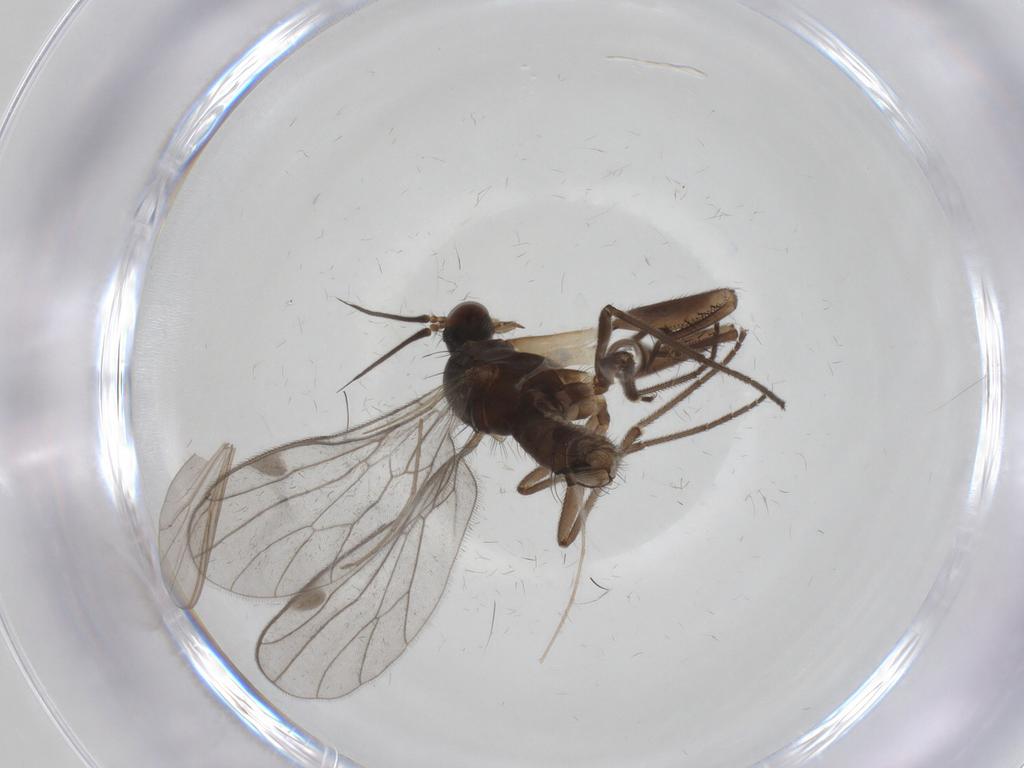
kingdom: Animalia
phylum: Arthropoda
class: Insecta
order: Diptera
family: Empididae
